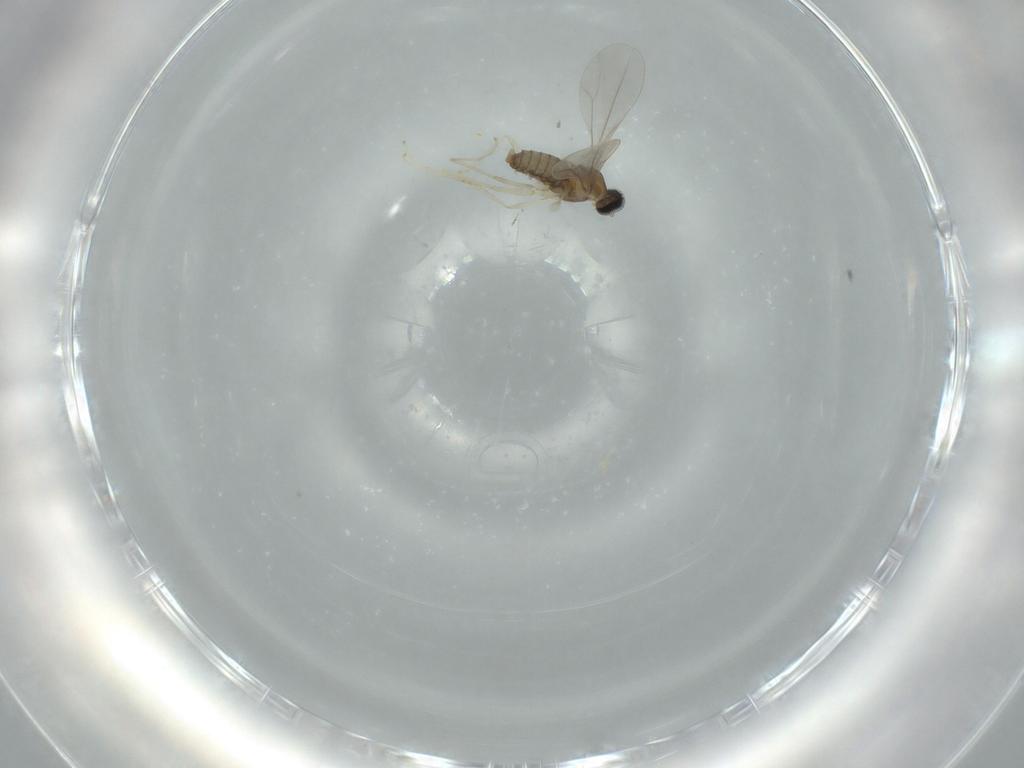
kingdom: Animalia
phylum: Arthropoda
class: Insecta
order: Diptera
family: Cecidomyiidae
